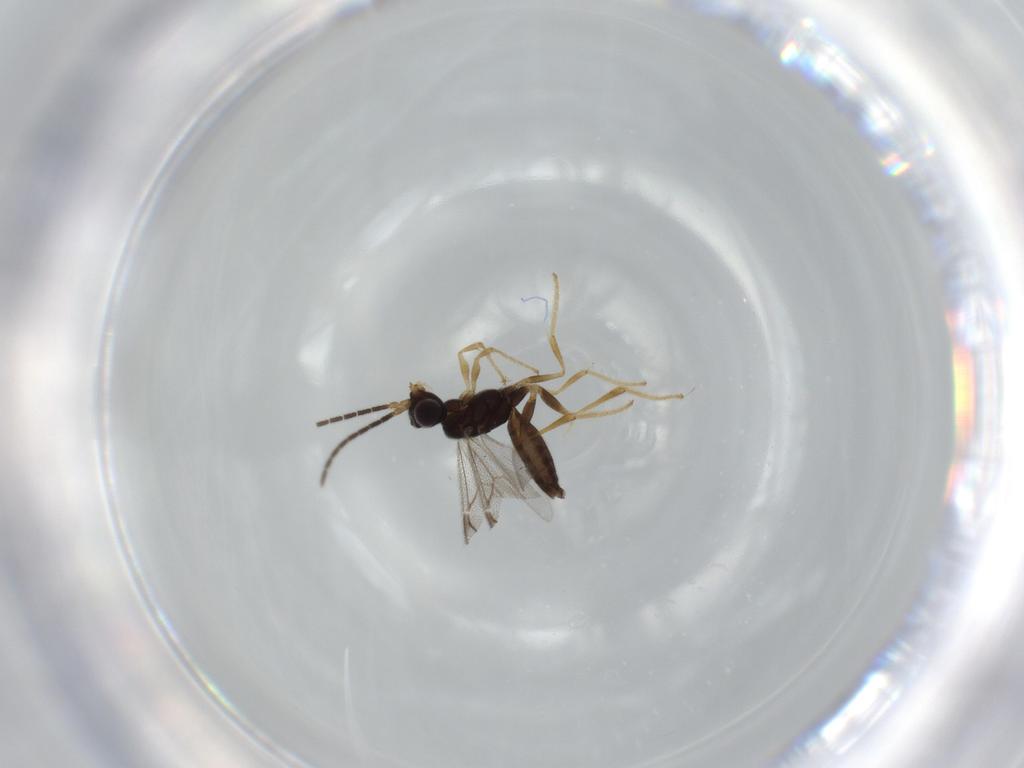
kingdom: Animalia
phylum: Arthropoda
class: Insecta
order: Hymenoptera
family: Dryinidae
